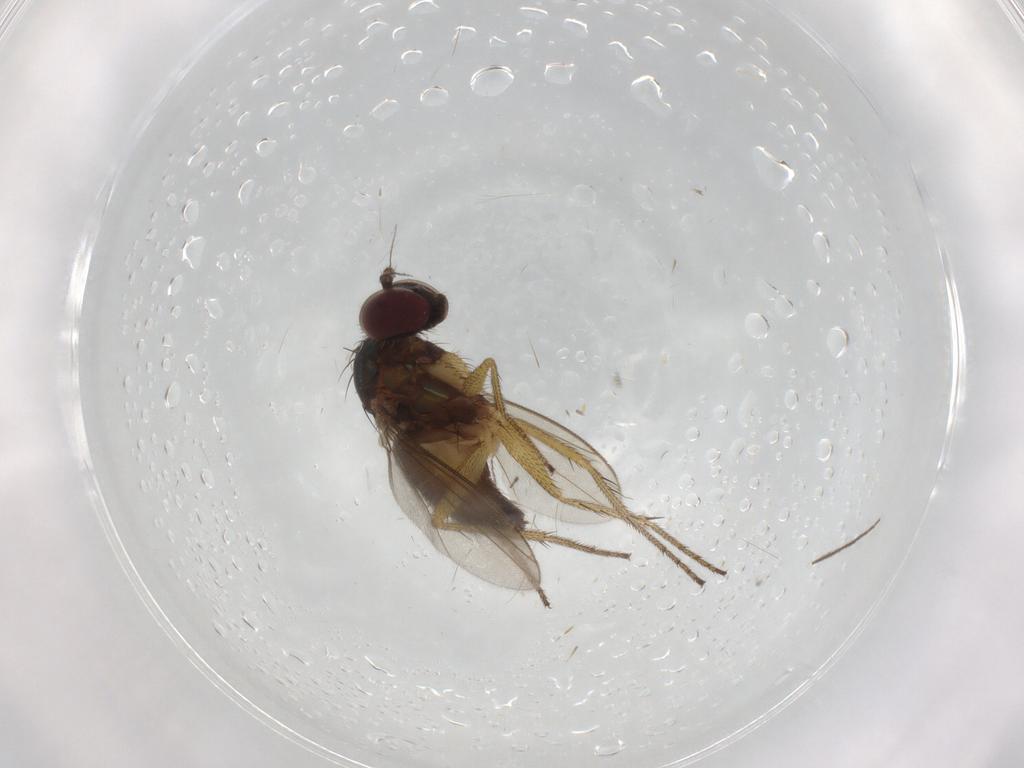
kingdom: Animalia
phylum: Arthropoda
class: Insecta
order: Diptera
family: Chironomidae
